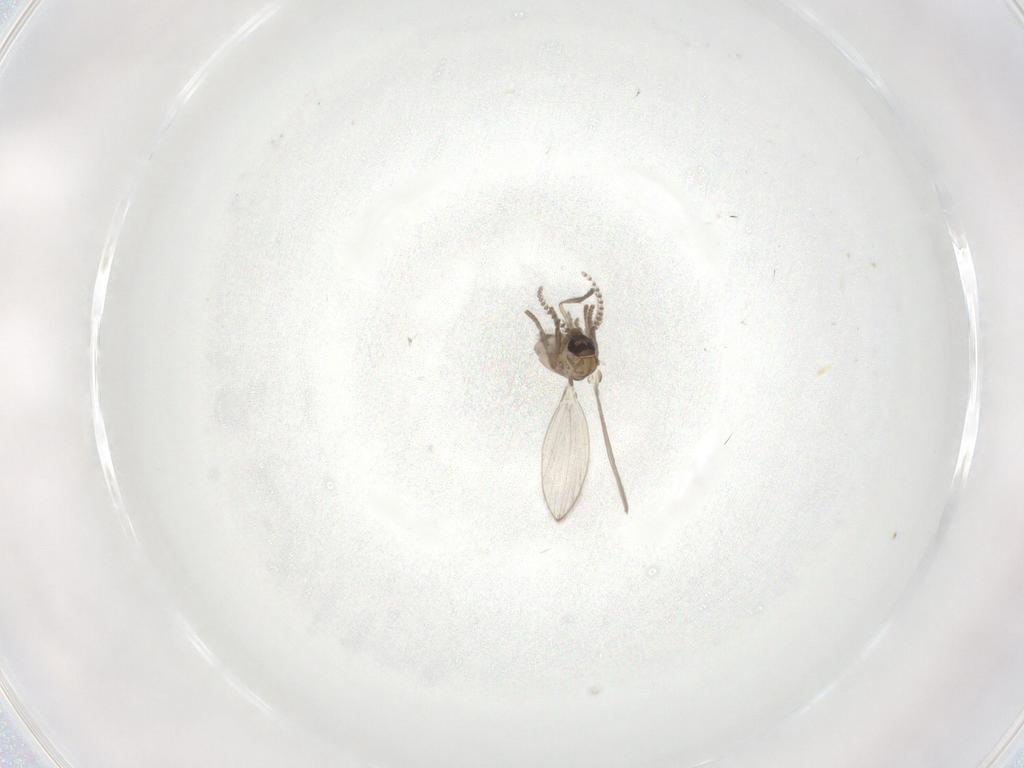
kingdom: Animalia
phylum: Arthropoda
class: Insecta
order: Diptera
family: Psychodidae
